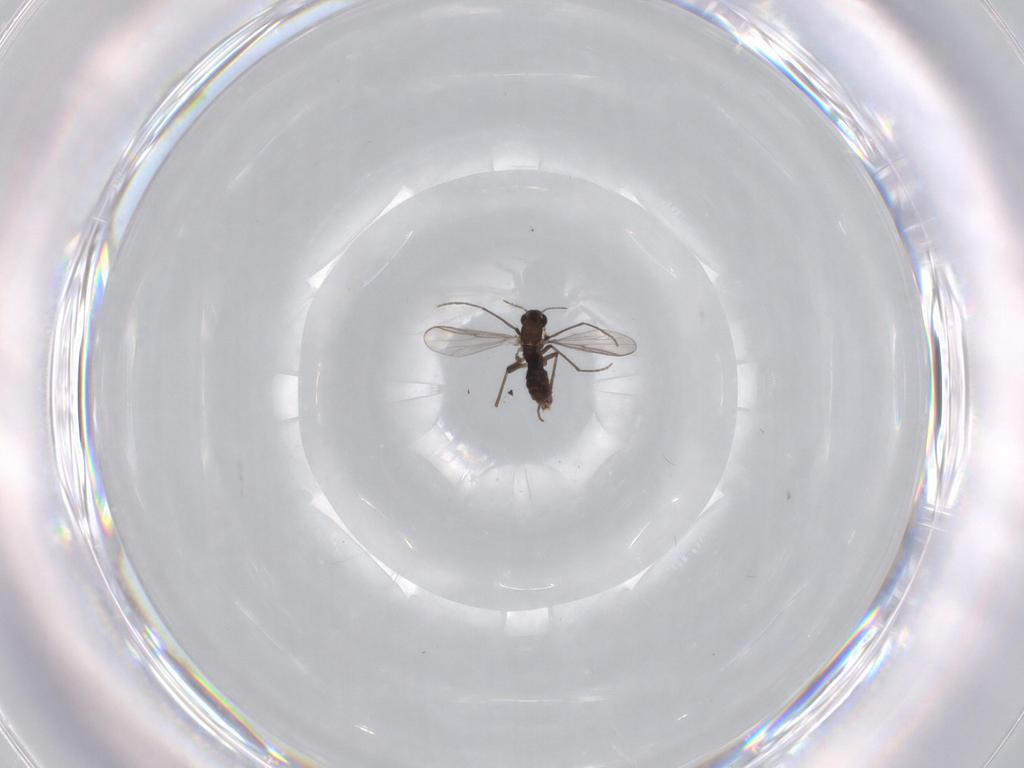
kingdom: Animalia
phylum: Arthropoda
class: Insecta
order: Diptera
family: Chironomidae
